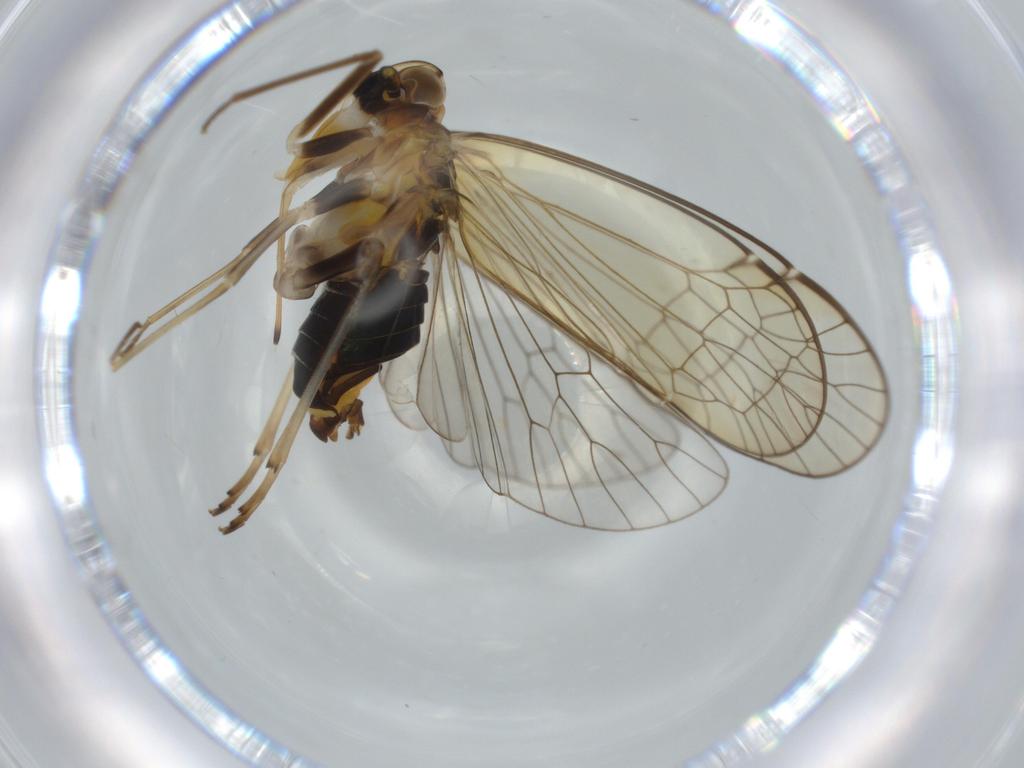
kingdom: Animalia
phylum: Arthropoda
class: Insecta
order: Hemiptera
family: Kinnaridae
